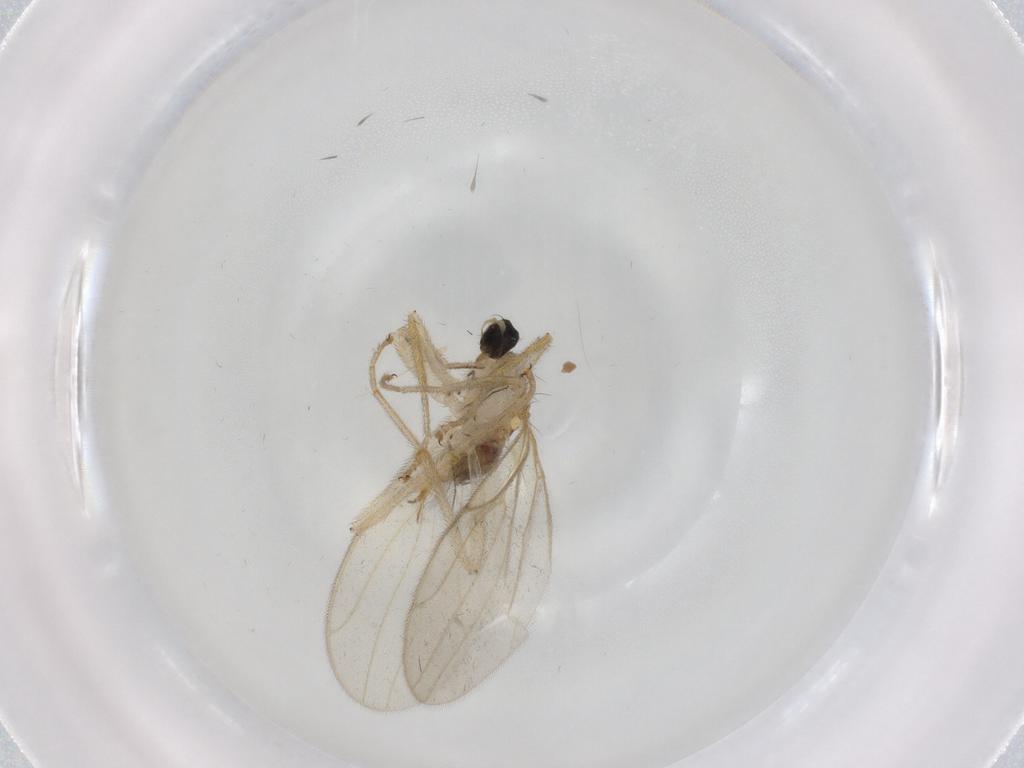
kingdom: Animalia
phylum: Arthropoda
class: Insecta
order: Diptera
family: Hybotidae
